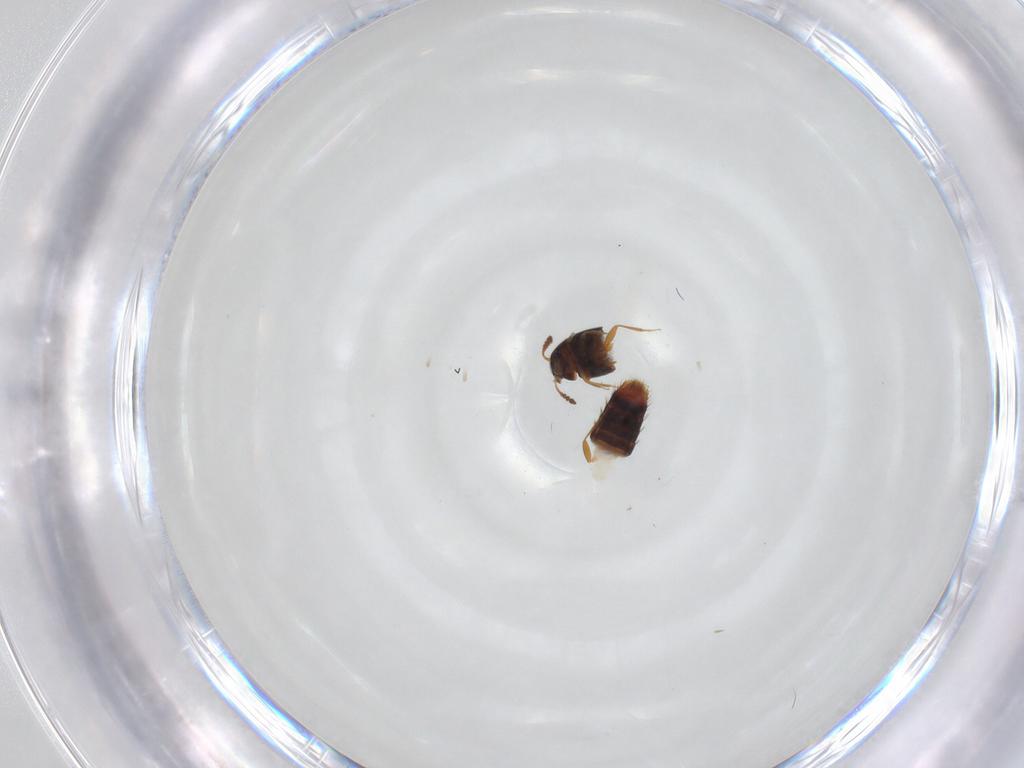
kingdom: Animalia
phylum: Arthropoda
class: Insecta
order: Coleoptera
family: Staphylinidae
